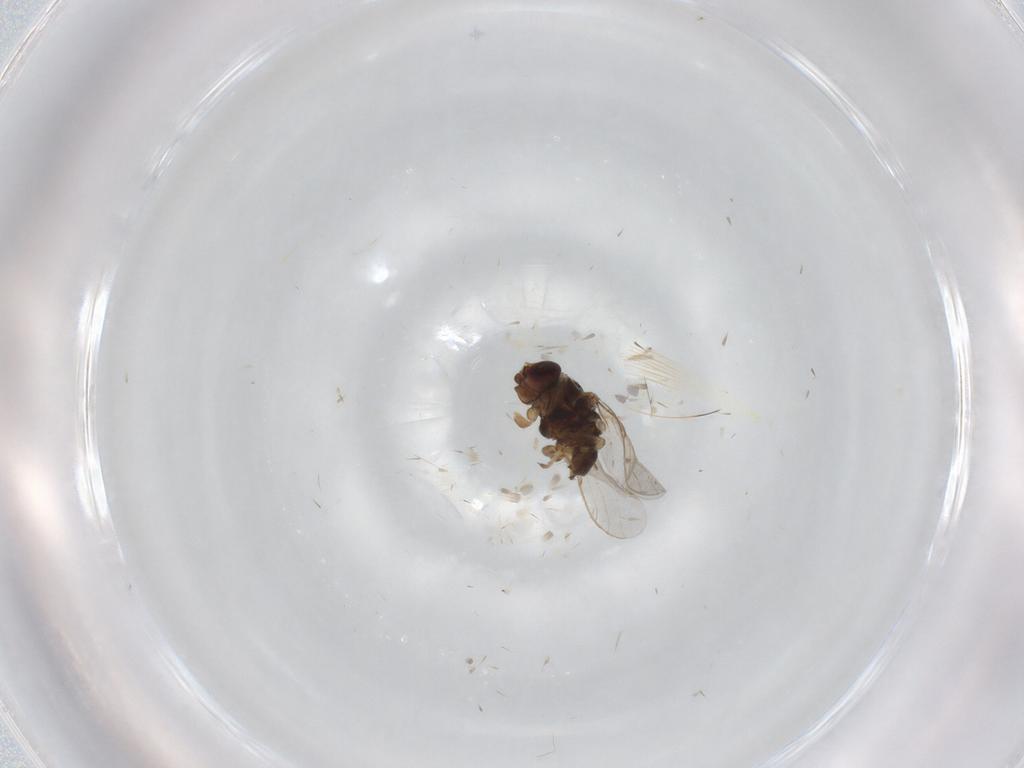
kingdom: Animalia
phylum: Arthropoda
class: Insecta
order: Diptera
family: Chloropidae
